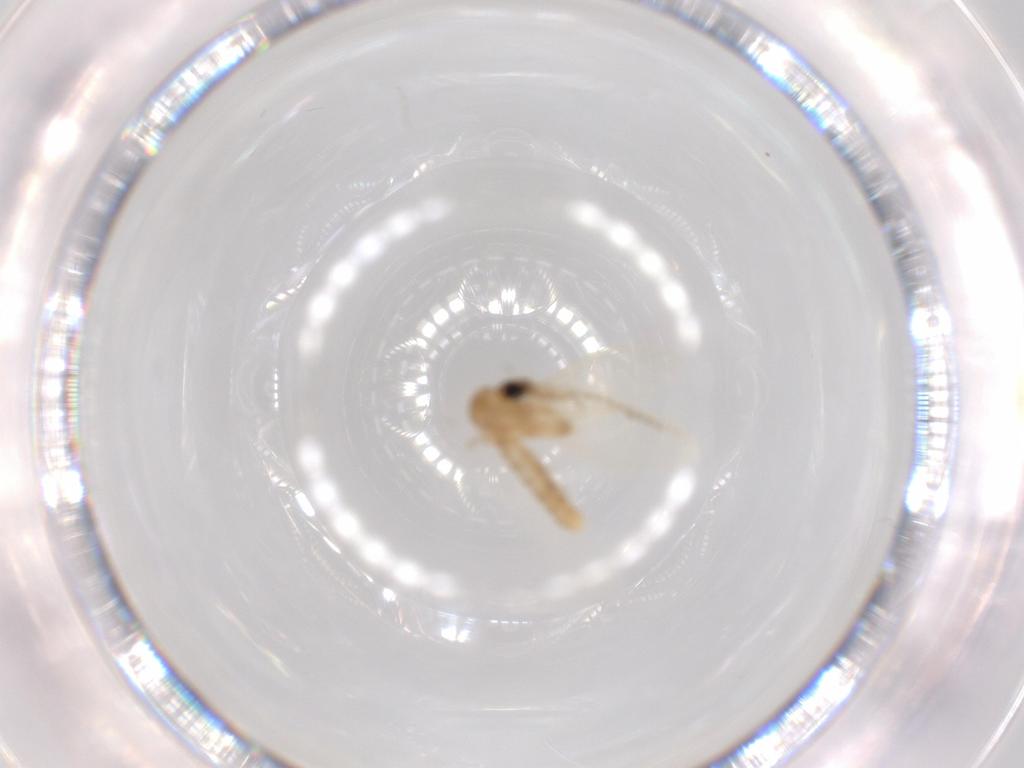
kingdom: Animalia
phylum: Arthropoda
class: Insecta
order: Diptera
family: Psychodidae
